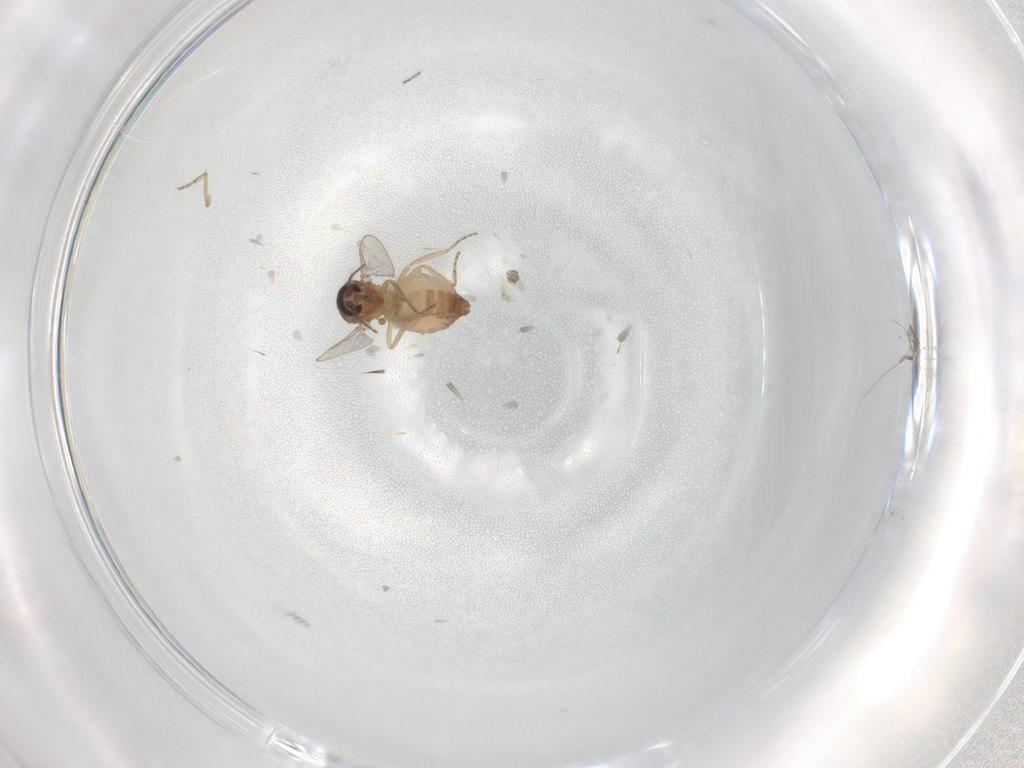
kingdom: Animalia
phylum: Arthropoda
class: Insecta
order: Diptera
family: Ceratopogonidae
